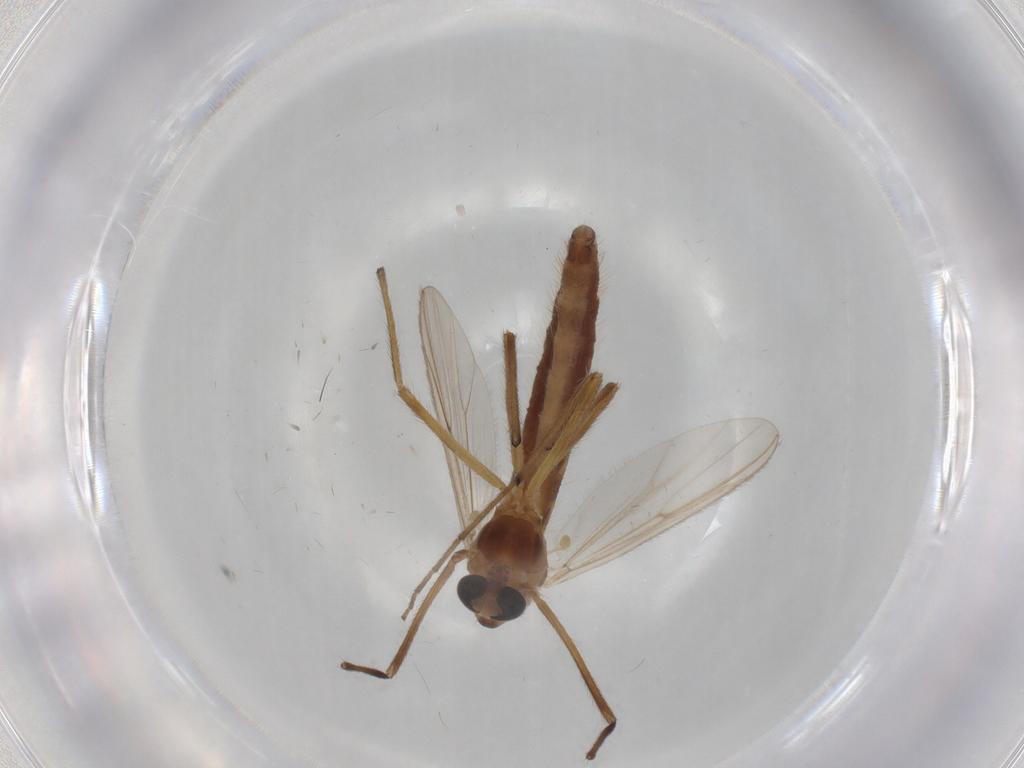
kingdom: Animalia
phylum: Arthropoda
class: Insecta
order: Diptera
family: Chironomidae
